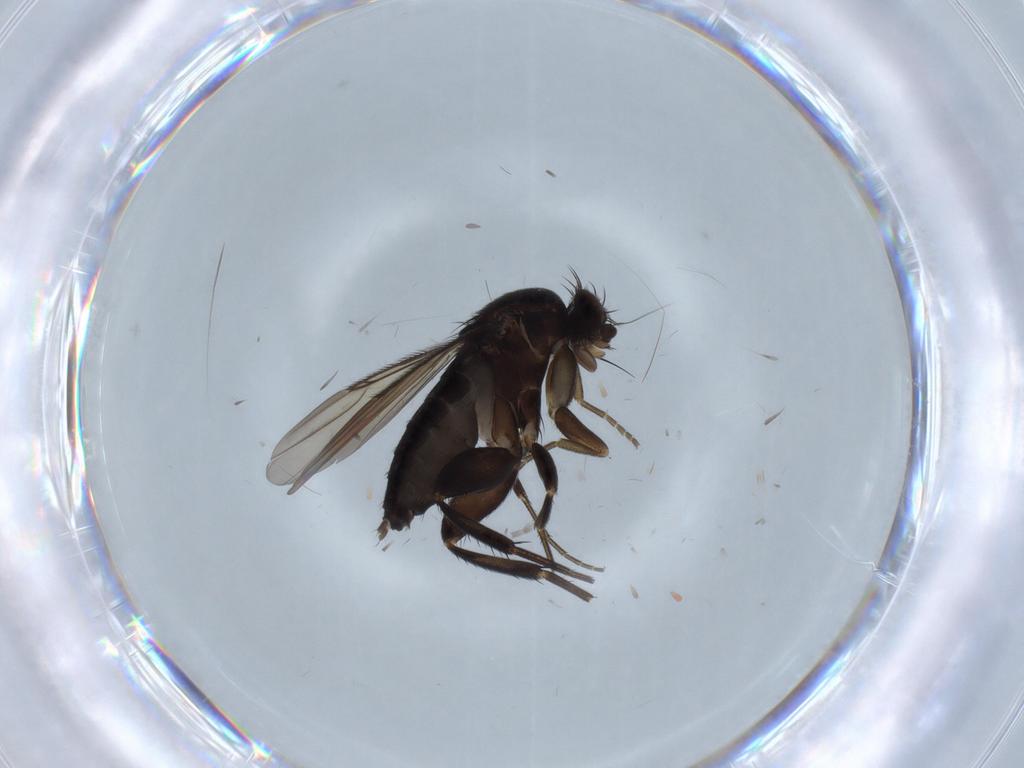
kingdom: Animalia
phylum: Arthropoda
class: Insecta
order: Diptera
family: Phoridae
